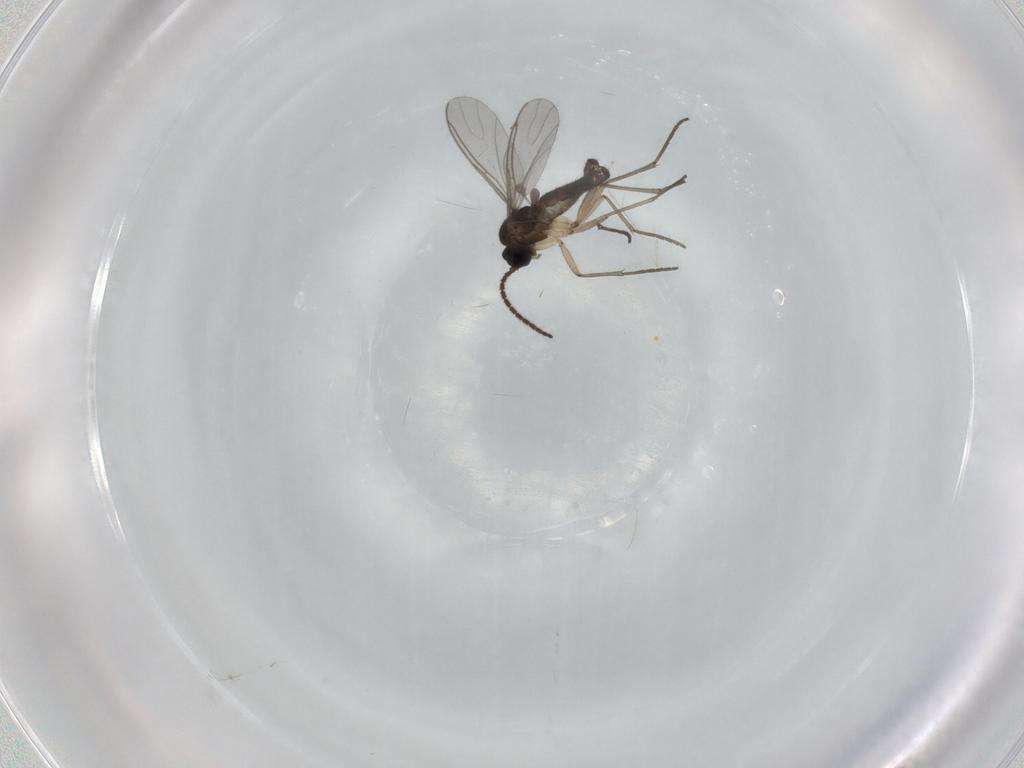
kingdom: Animalia
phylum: Arthropoda
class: Insecta
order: Diptera
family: Sciaridae
